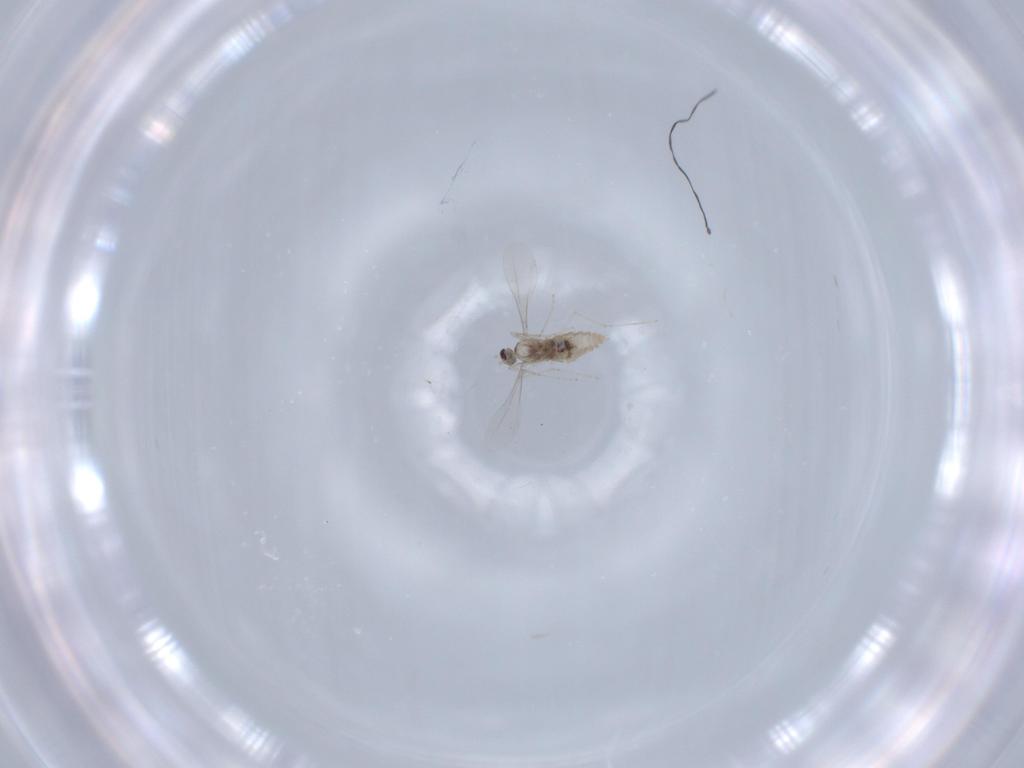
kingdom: Animalia
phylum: Arthropoda
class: Insecta
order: Diptera
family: Cecidomyiidae
